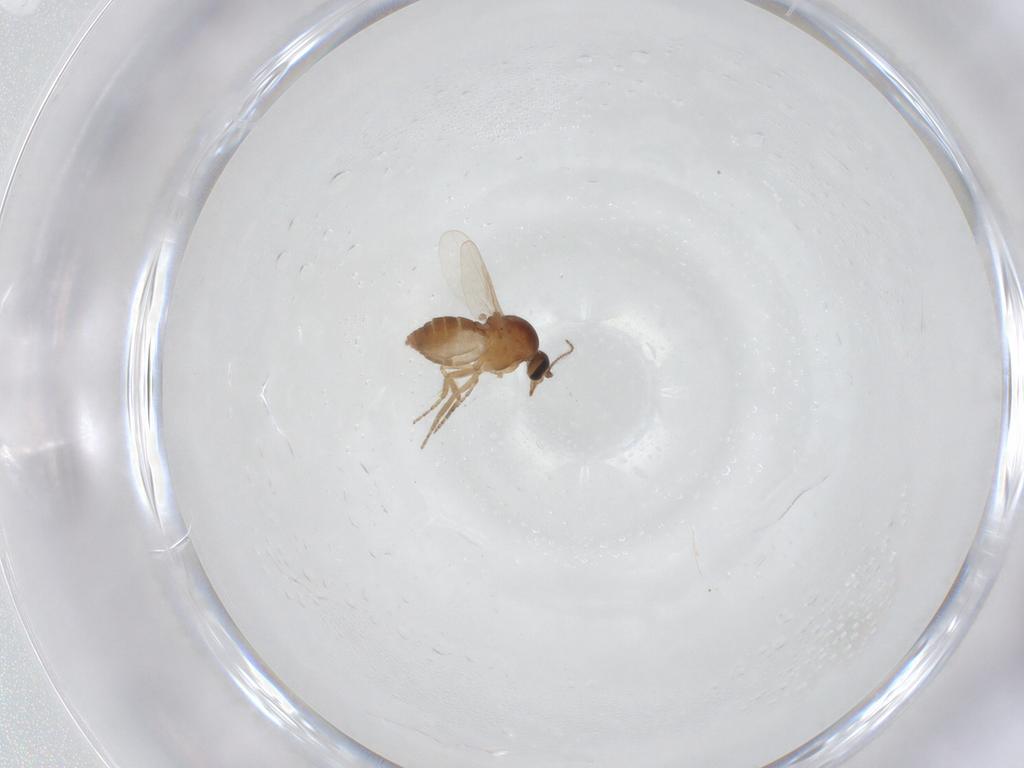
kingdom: Animalia
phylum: Arthropoda
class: Insecta
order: Diptera
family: Ceratopogonidae
